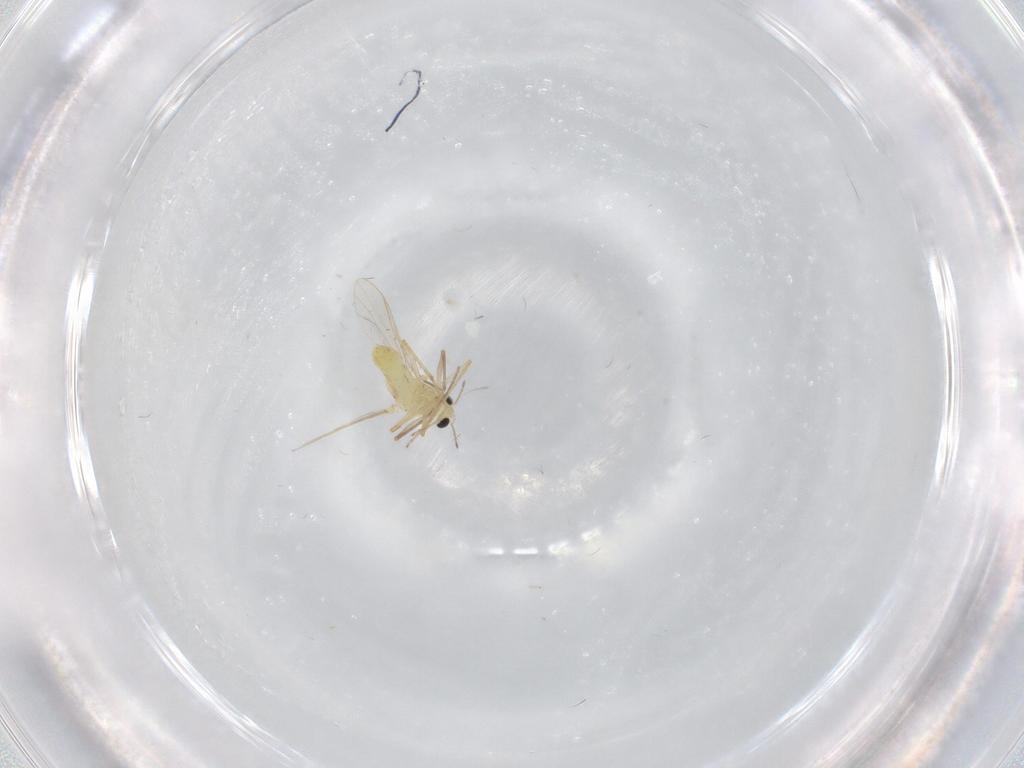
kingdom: Animalia
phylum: Arthropoda
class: Insecta
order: Diptera
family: Chironomidae
